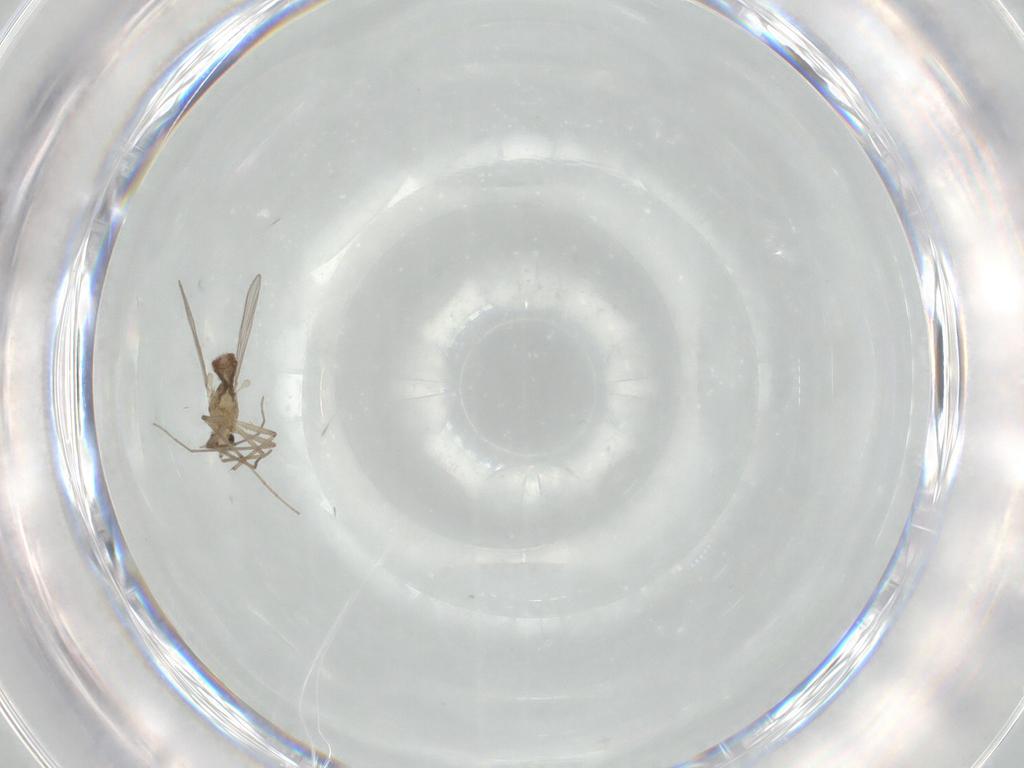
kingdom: Animalia
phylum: Arthropoda
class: Insecta
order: Diptera
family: Chironomidae
